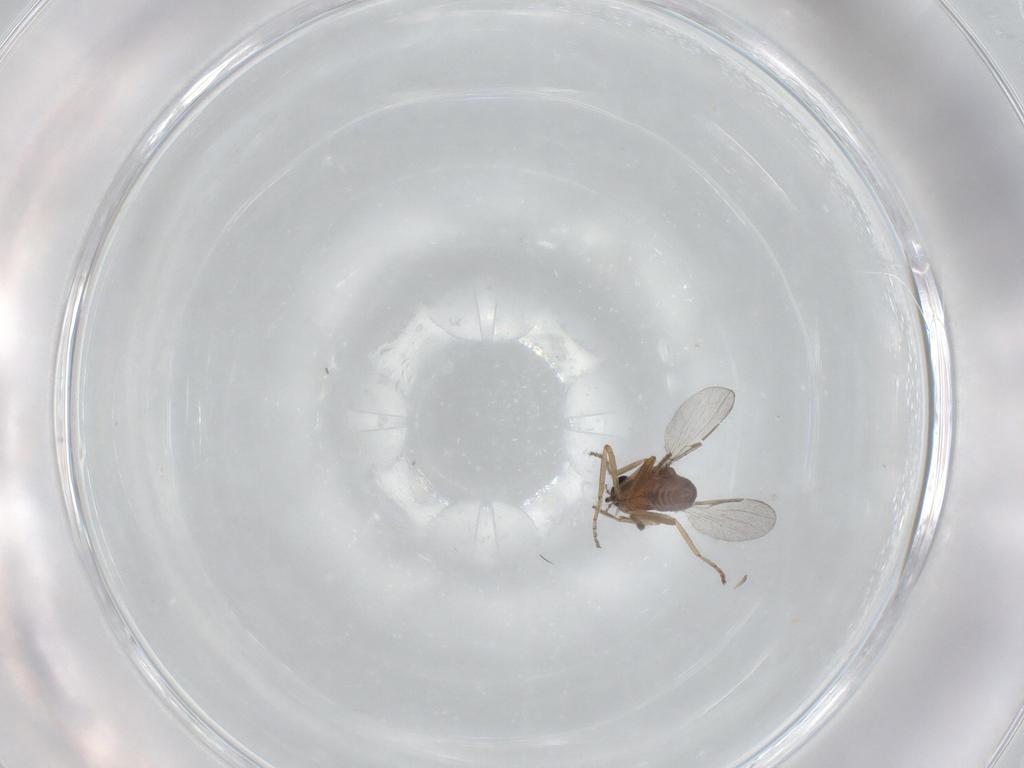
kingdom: Animalia
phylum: Arthropoda
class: Insecta
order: Diptera
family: Ceratopogonidae
